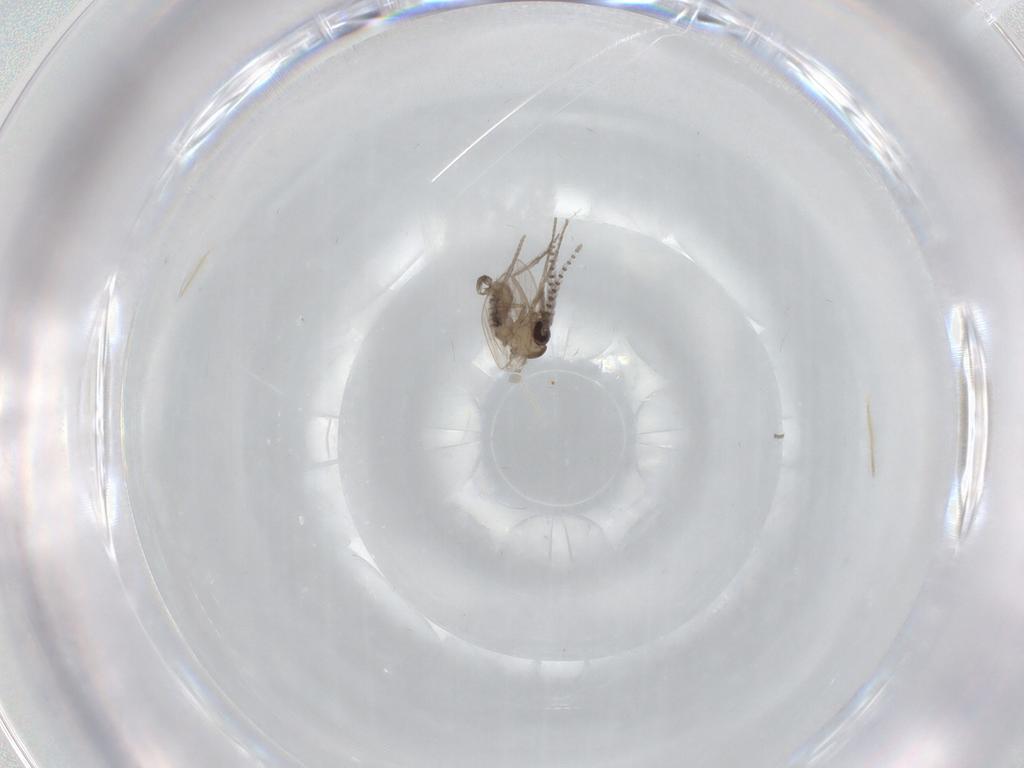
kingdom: Animalia
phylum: Arthropoda
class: Insecta
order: Diptera
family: Psychodidae
